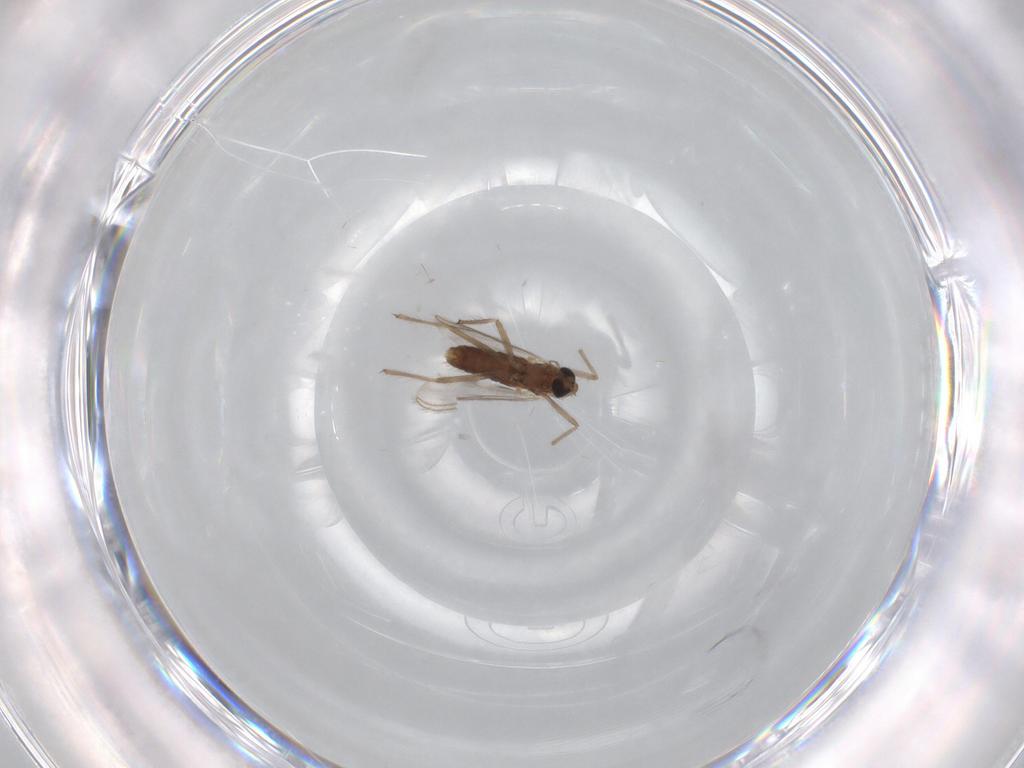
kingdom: Animalia
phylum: Arthropoda
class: Insecta
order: Diptera
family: Chironomidae
